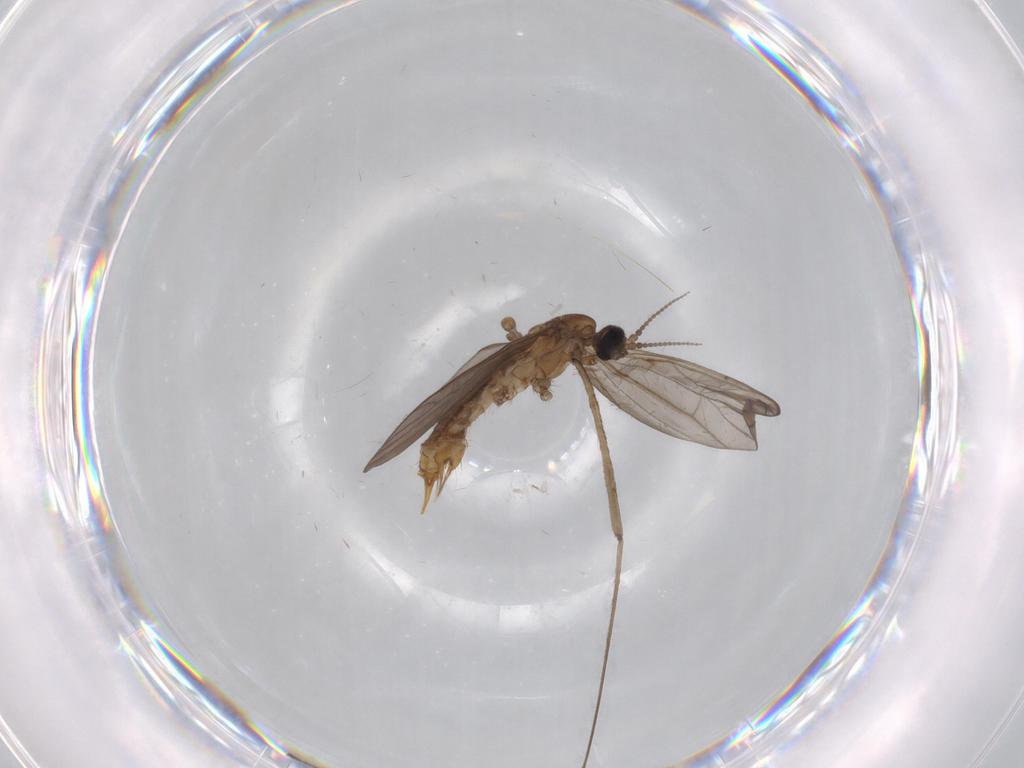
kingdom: Animalia
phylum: Arthropoda
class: Insecta
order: Diptera
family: Limoniidae
